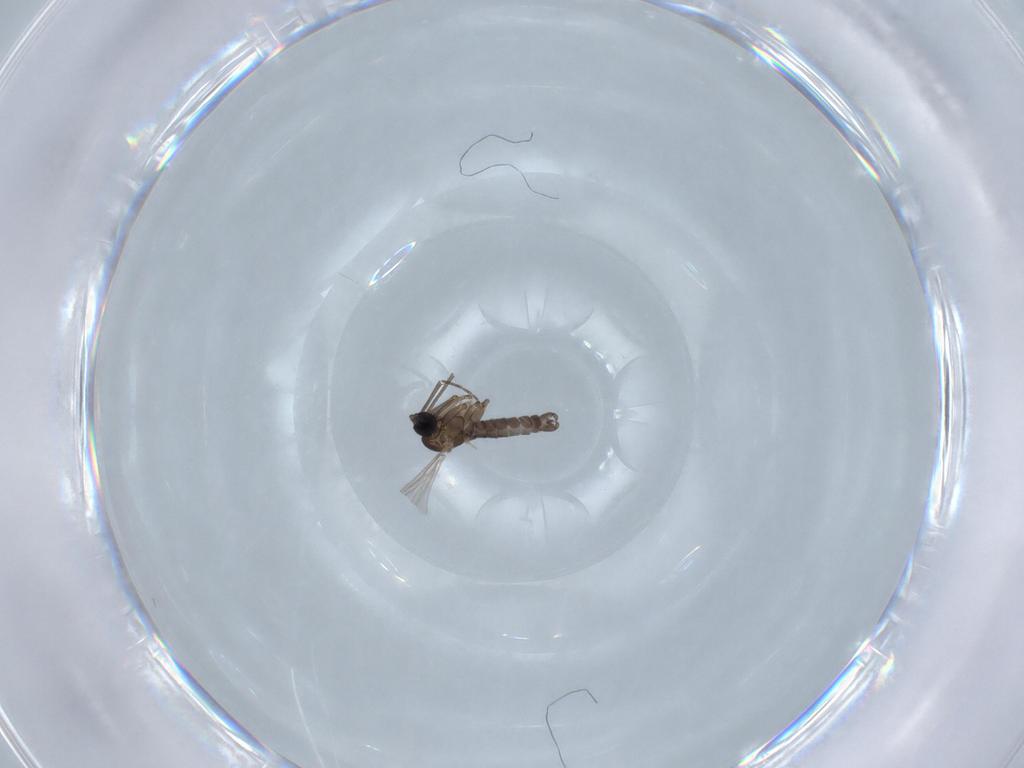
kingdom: Animalia
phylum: Arthropoda
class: Insecta
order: Diptera
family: Sciaridae
